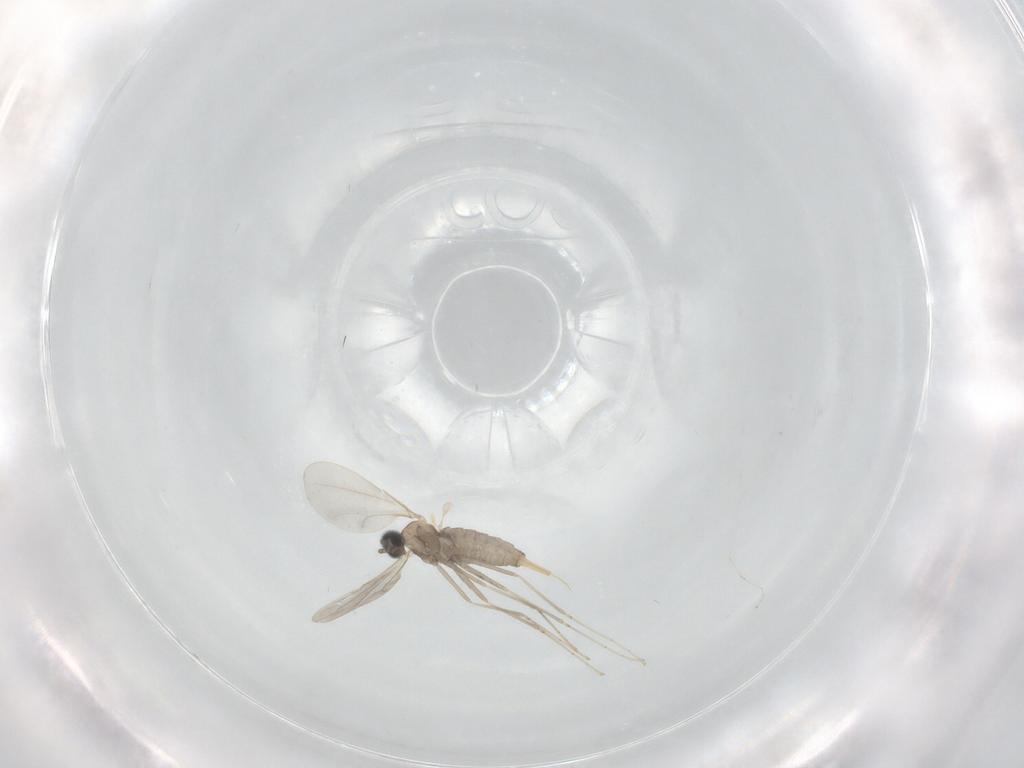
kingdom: Animalia
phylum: Arthropoda
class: Insecta
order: Diptera
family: Cecidomyiidae
